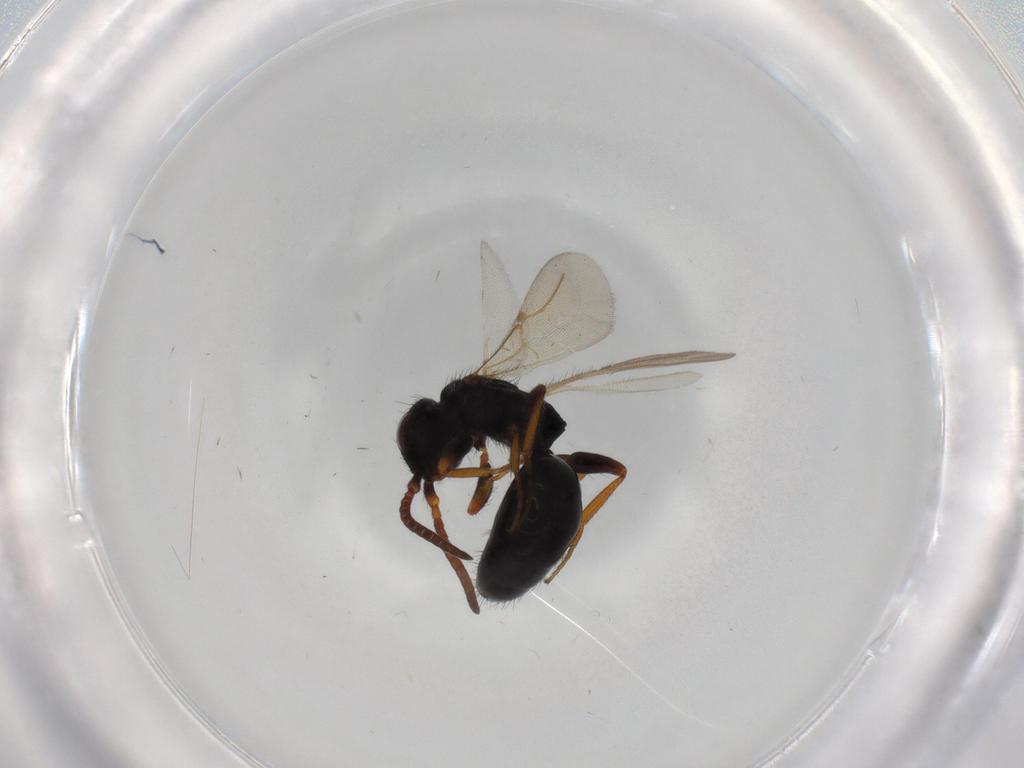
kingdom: Animalia
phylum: Arthropoda
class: Insecta
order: Hymenoptera
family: Bethylidae
